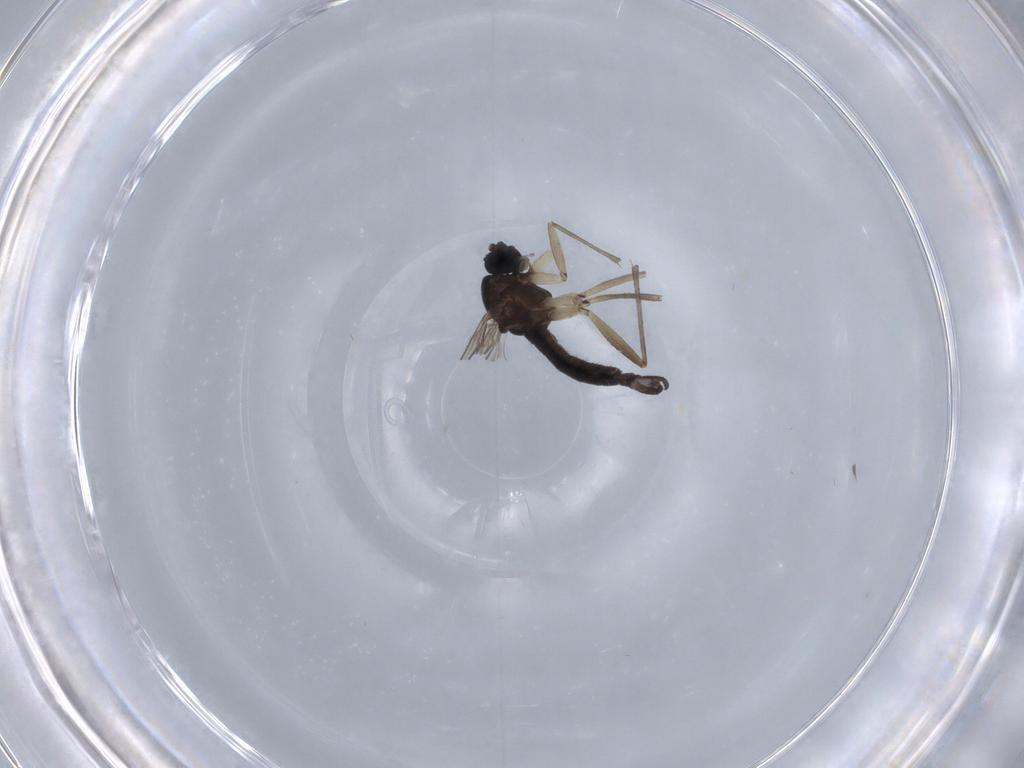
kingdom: Animalia
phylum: Arthropoda
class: Insecta
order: Diptera
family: Sciaridae
